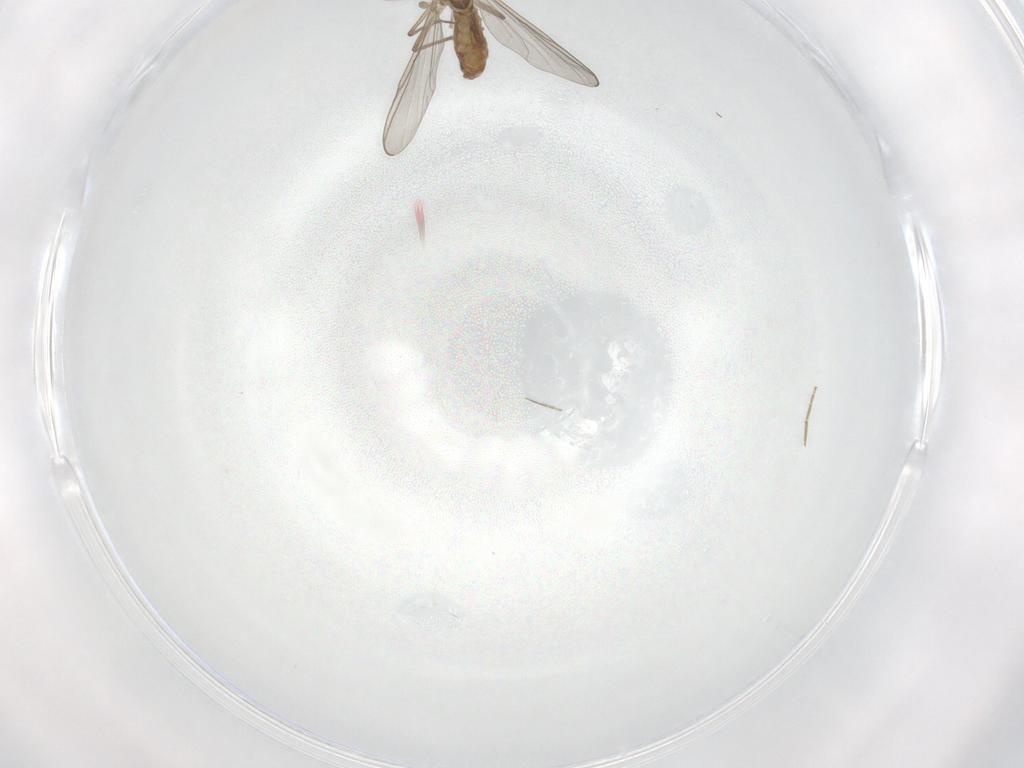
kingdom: Animalia
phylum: Arthropoda
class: Insecta
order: Diptera
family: Chironomidae
